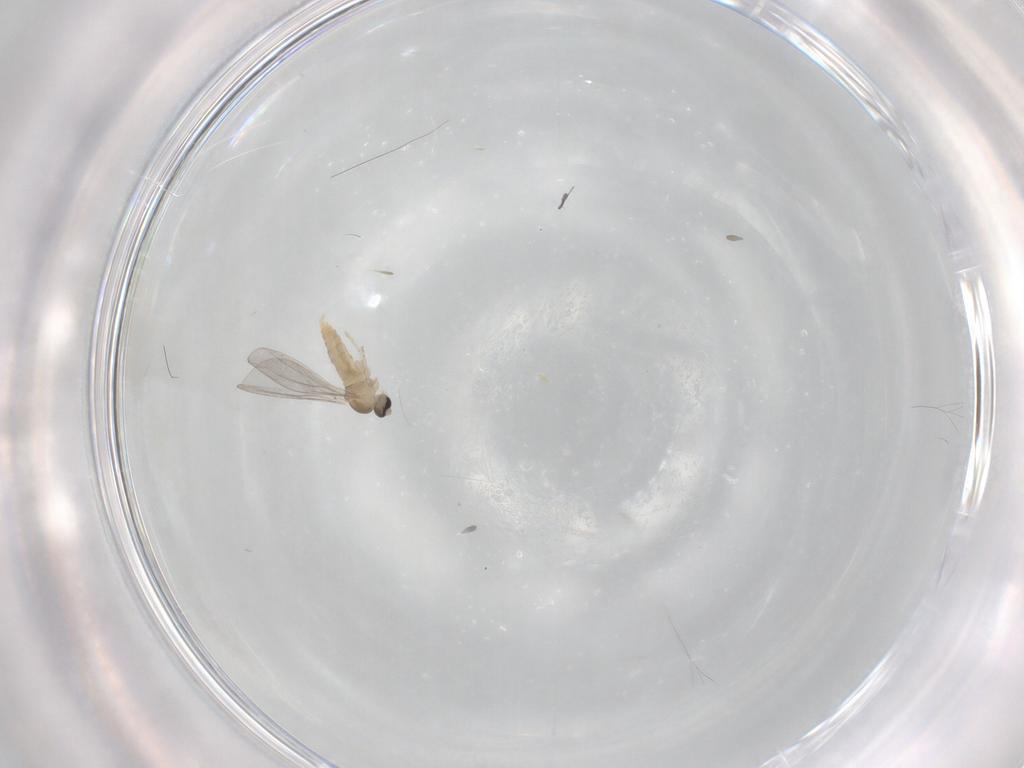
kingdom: Animalia
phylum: Arthropoda
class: Insecta
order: Diptera
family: Cecidomyiidae
